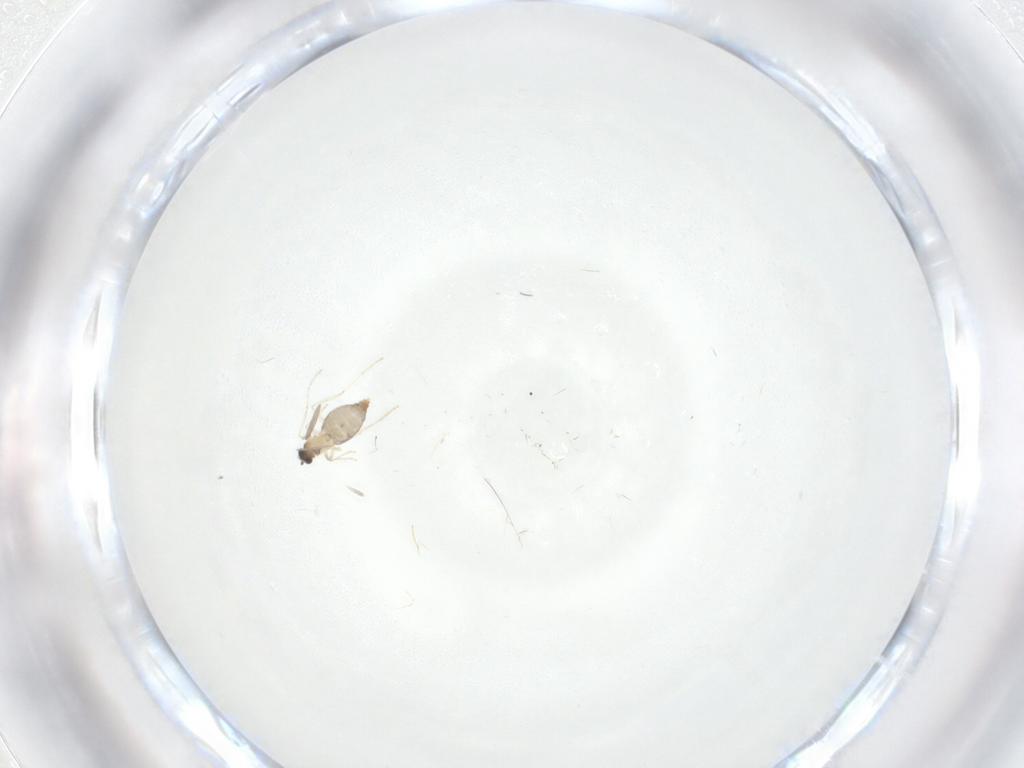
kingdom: Animalia
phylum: Arthropoda
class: Insecta
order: Diptera
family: Cecidomyiidae
